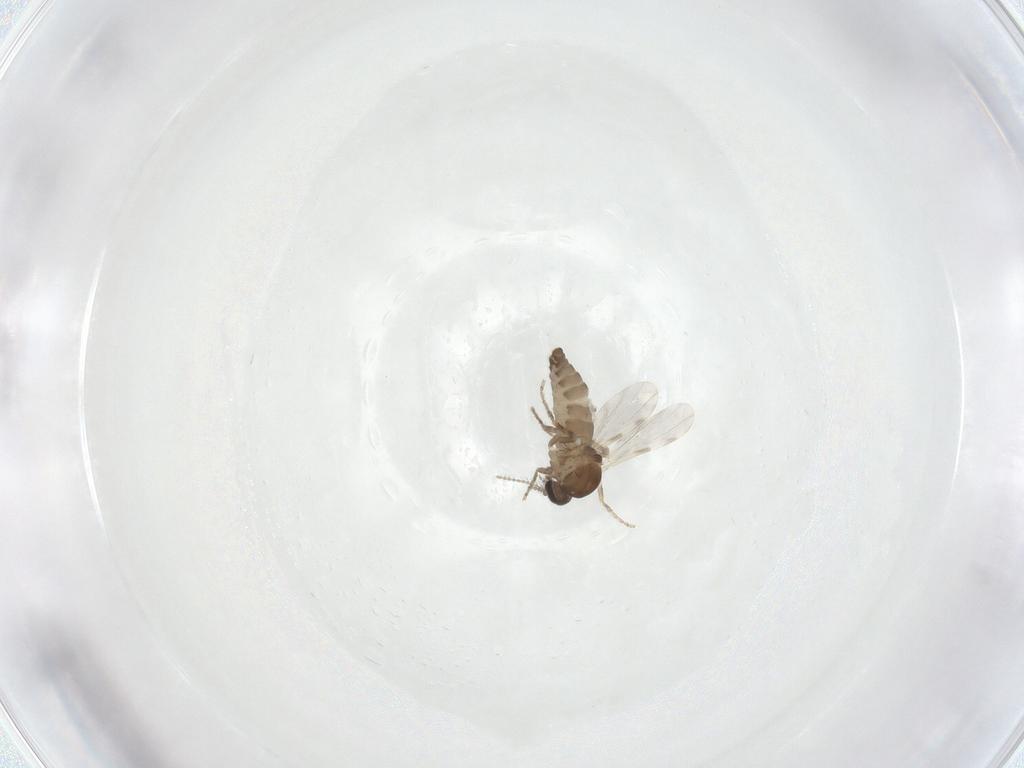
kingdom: Animalia
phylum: Arthropoda
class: Insecta
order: Diptera
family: Ceratopogonidae
